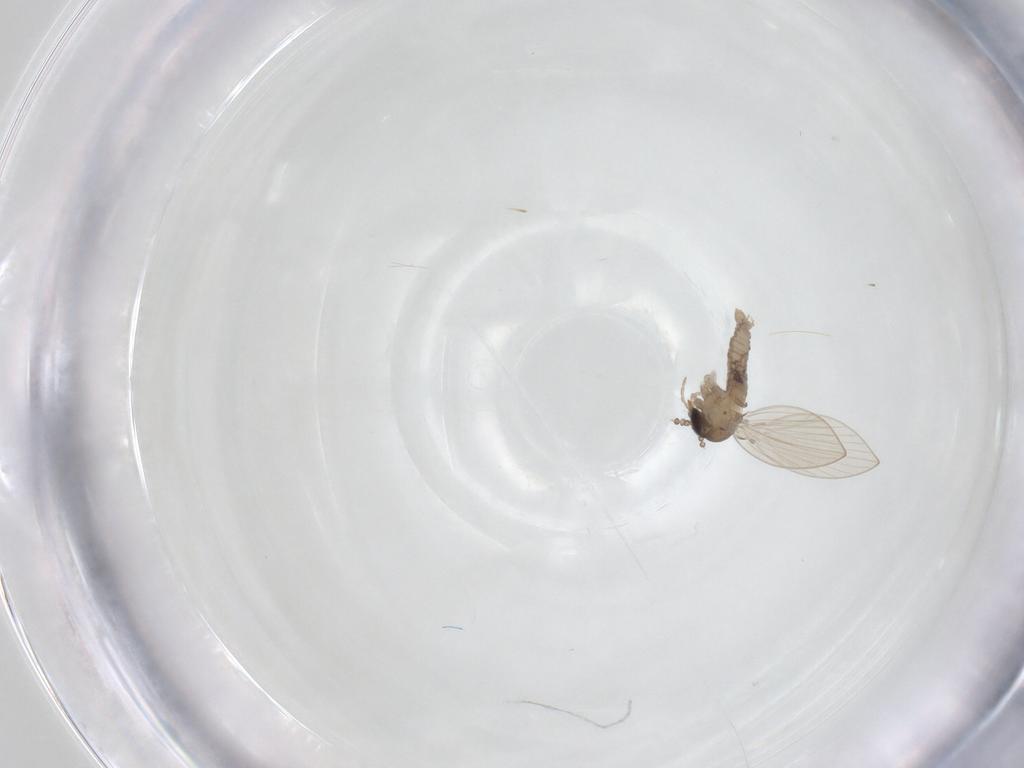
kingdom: Animalia
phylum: Arthropoda
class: Insecta
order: Diptera
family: Psychodidae
